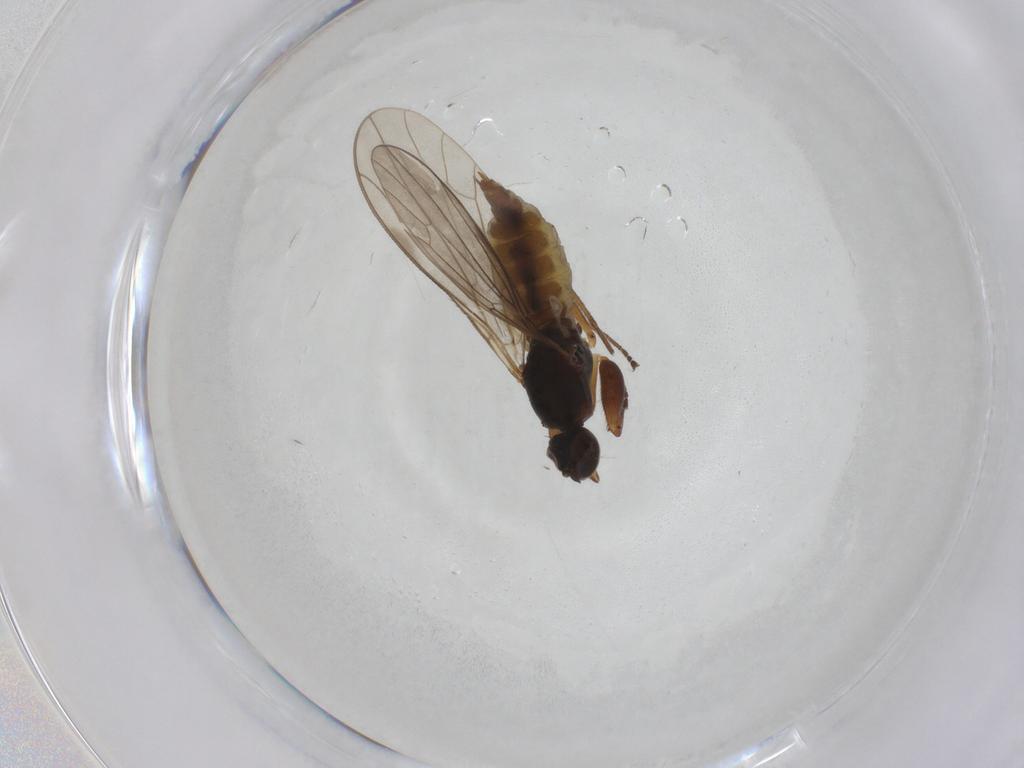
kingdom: Animalia
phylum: Arthropoda
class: Insecta
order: Diptera
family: Empididae
